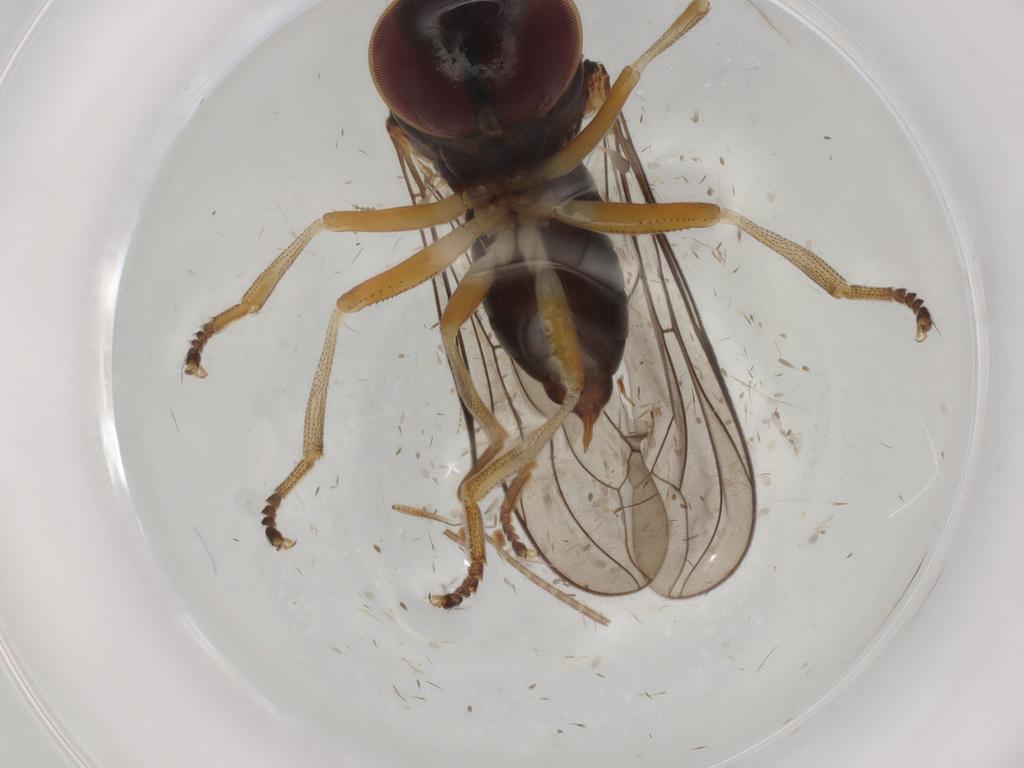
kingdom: Animalia
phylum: Arthropoda
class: Insecta
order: Diptera
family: Pipunculidae
